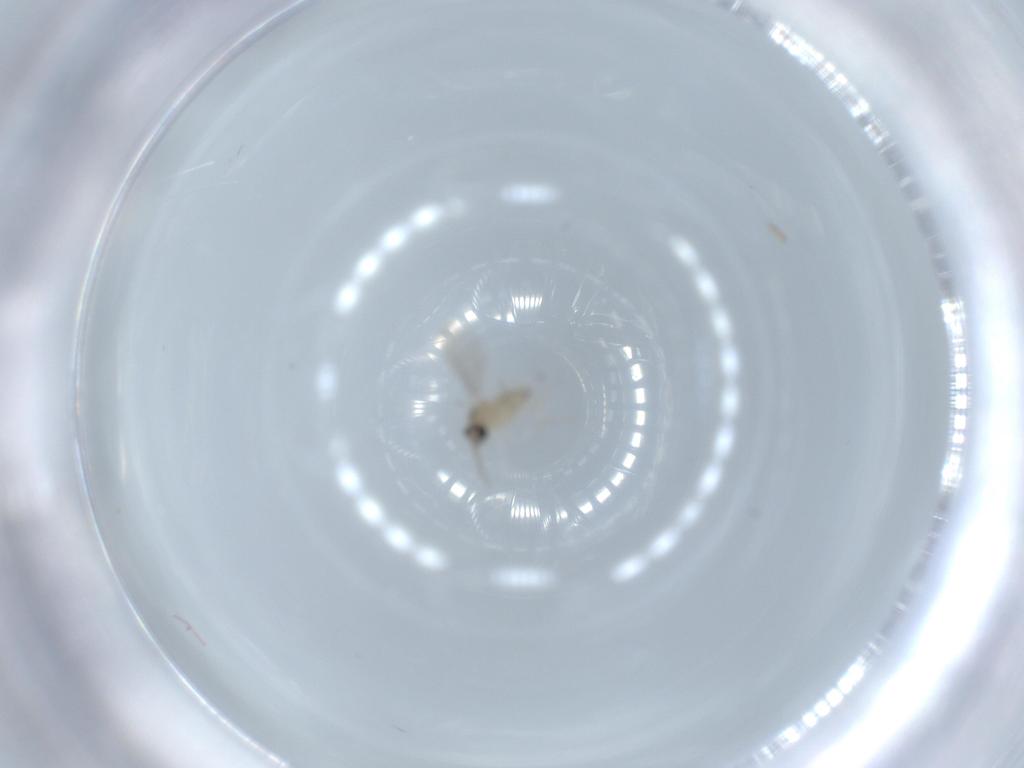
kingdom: Animalia
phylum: Arthropoda
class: Insecta
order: Diptera
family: Cecidomyiidae
